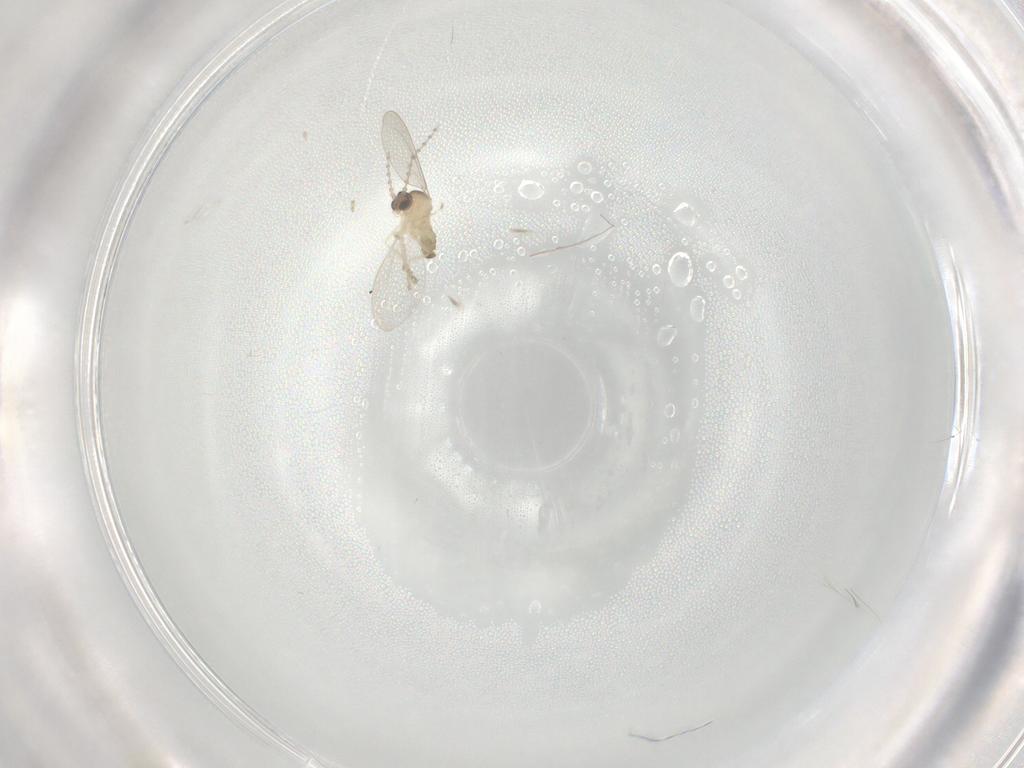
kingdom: Animalia
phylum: Arthropoda
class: Insecta
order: Diptera
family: Cecidomyiidae
